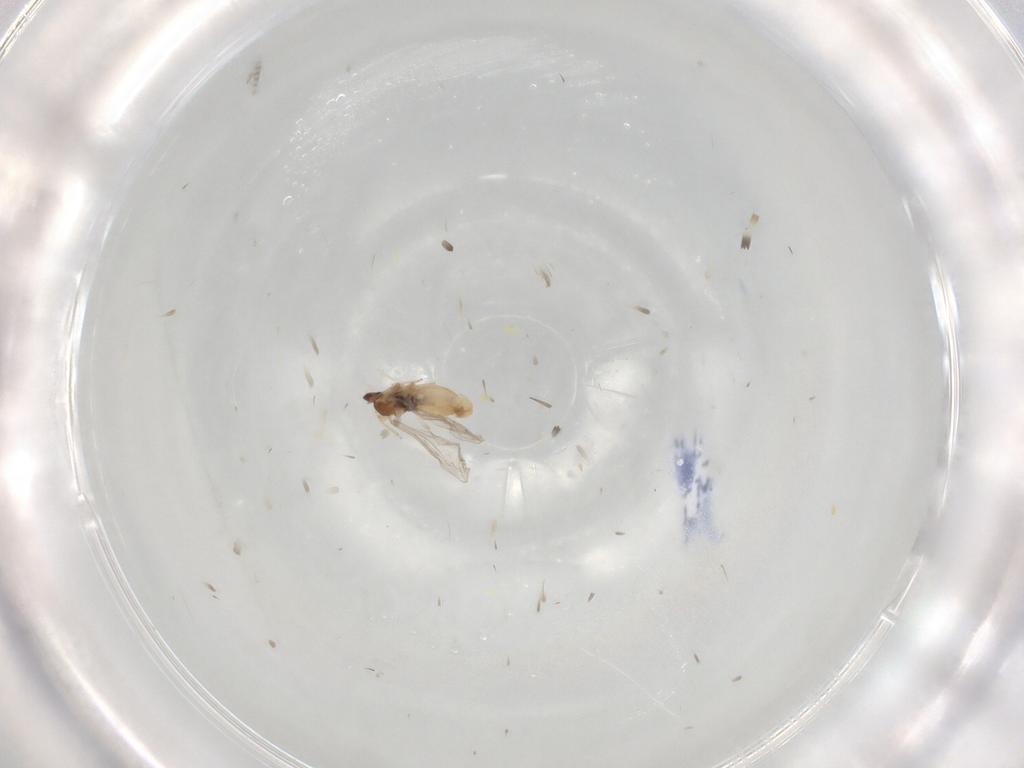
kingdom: Animalia
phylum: Arthropoda
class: Insecta
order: Diptera
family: Cecidomyiidae
